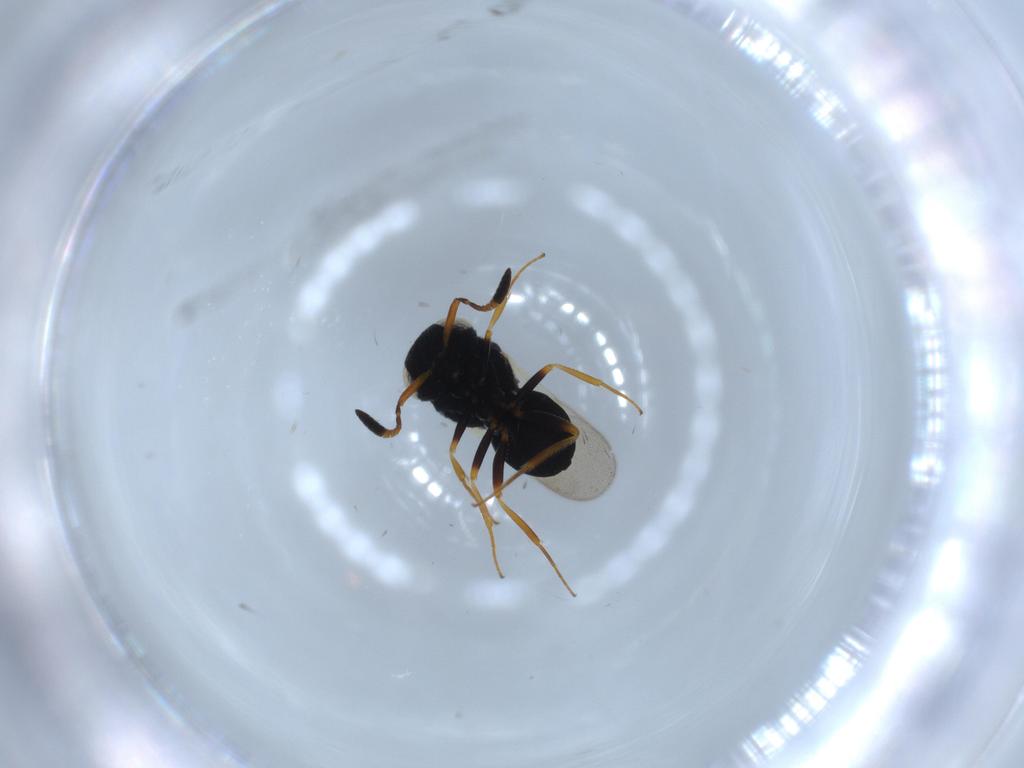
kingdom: Animalia
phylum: Arthropoda
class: Insecta
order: Hymenoptera
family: Scelionidae
